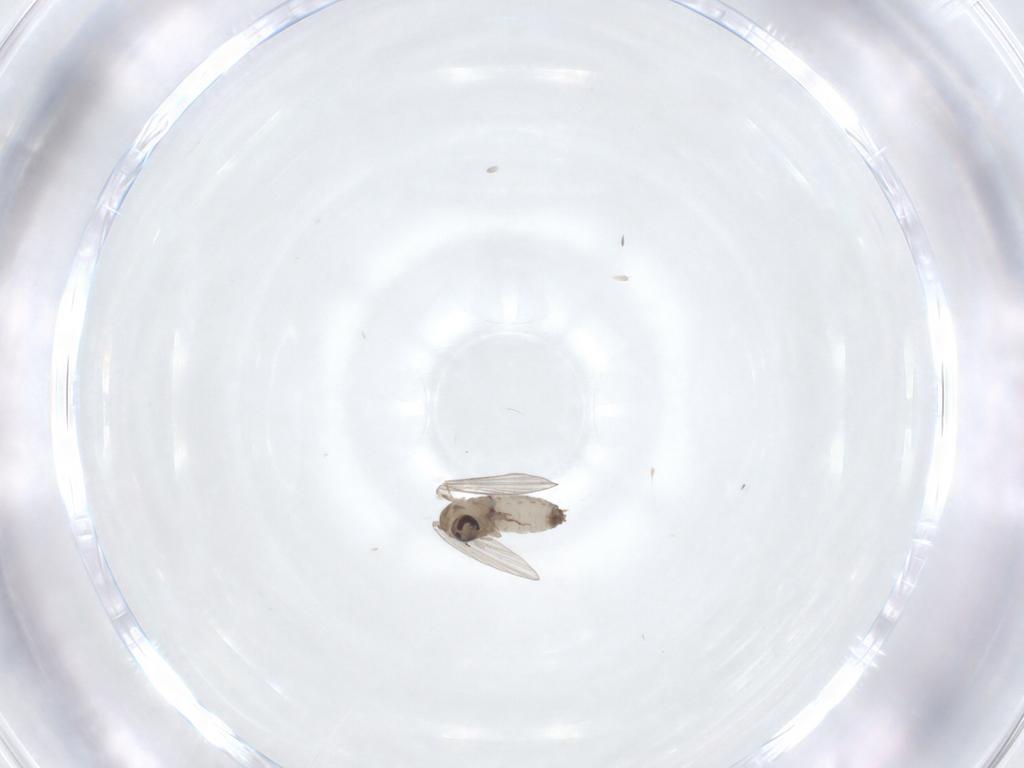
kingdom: Animalia
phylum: Arthropoda
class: Insecta
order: Diptera
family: Psychodidae
